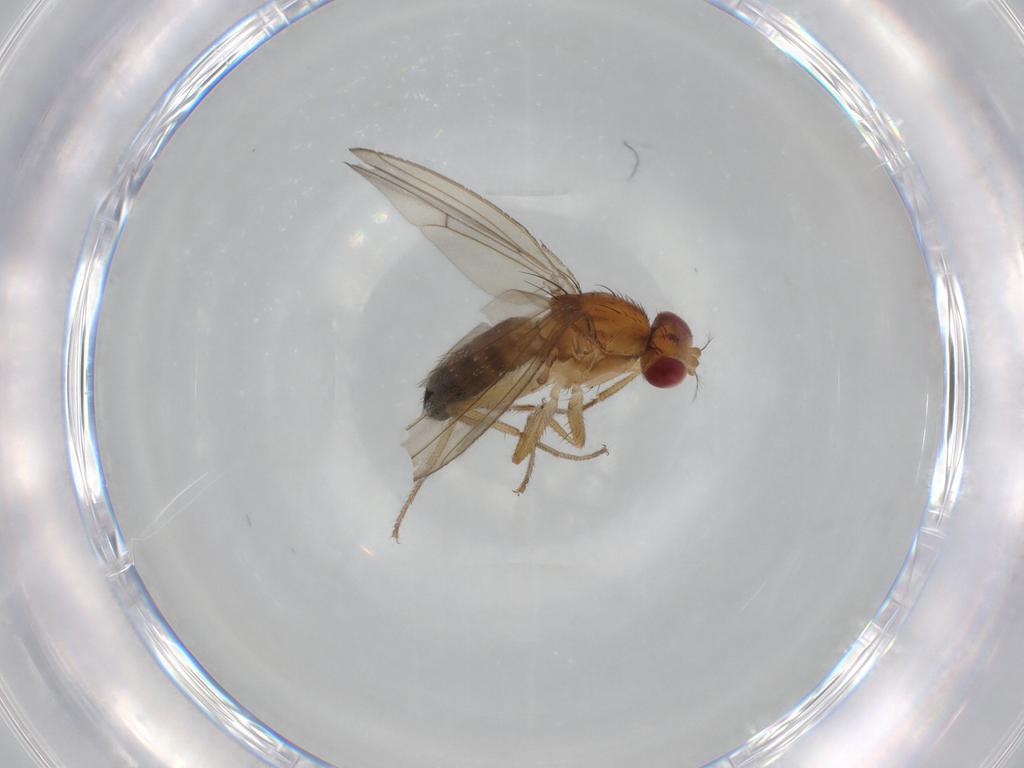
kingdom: Animalia
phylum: Arthropoda
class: Insecta
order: Diptera
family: Drosophilidae
